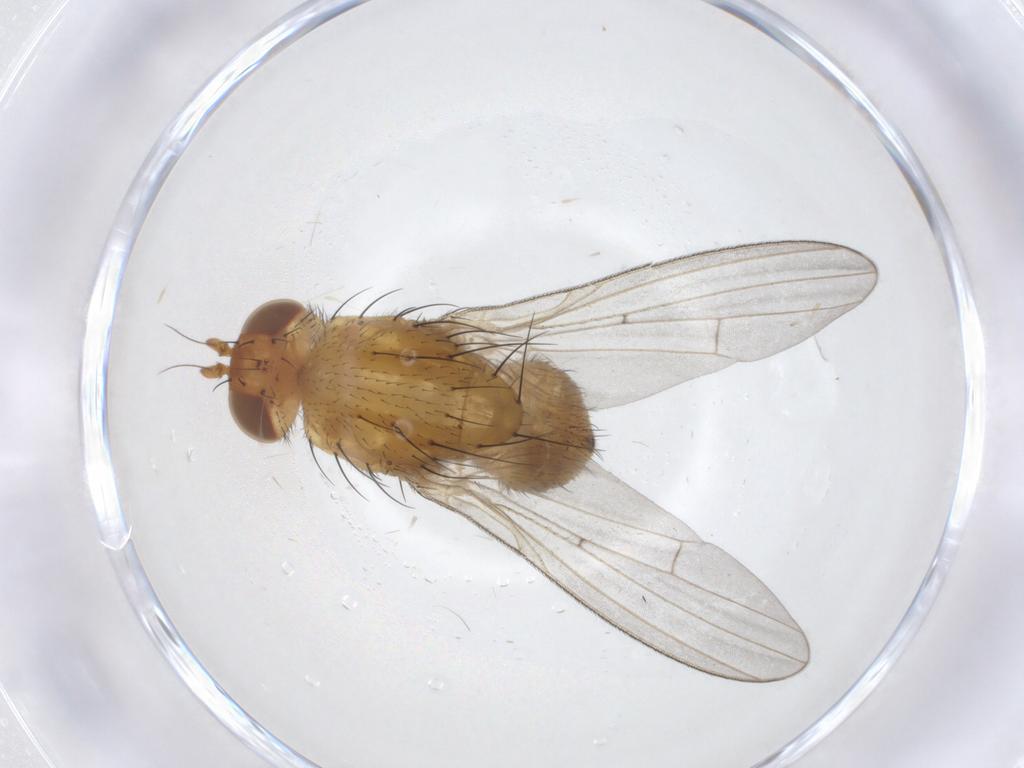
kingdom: Animalia
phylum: Arthropoda
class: Insecta
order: Diptera
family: Lauxaniidae
